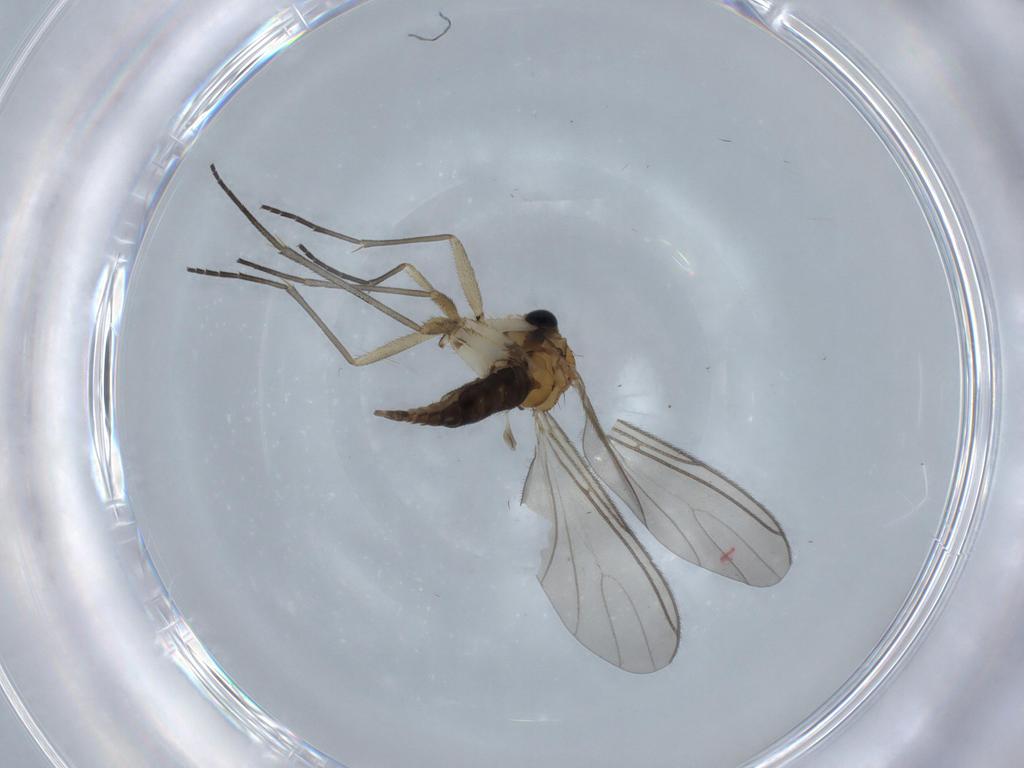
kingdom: Animalia
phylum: Arthropoda
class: Insecta
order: Diptera
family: Sciaridae
